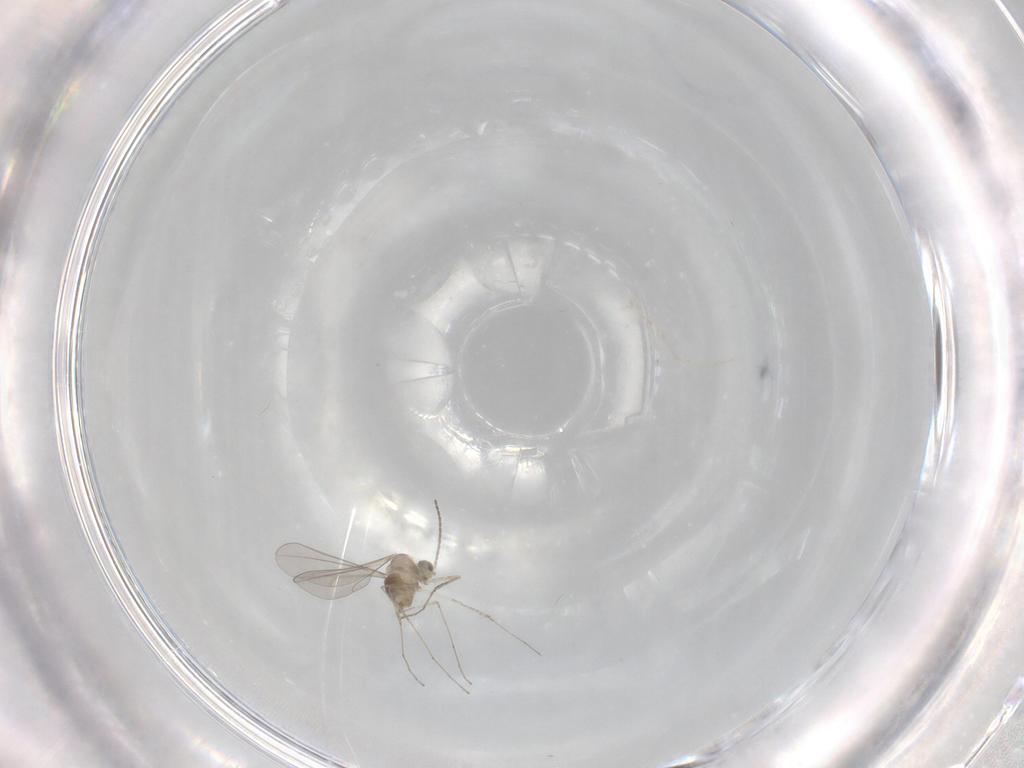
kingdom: Animalia
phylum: Arthropoda
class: Insecta
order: Diptera
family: Cecidomyiidae
